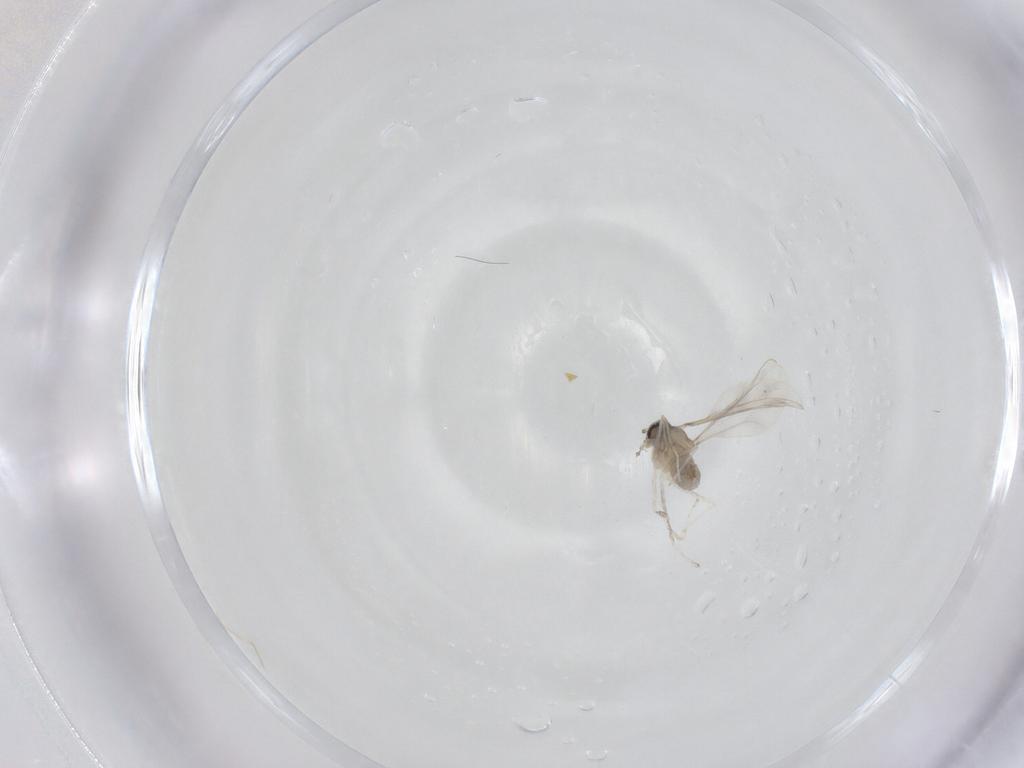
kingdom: Animalia
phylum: Arthropoda
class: Insecta
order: Diptera
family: Cecidomyiidae
